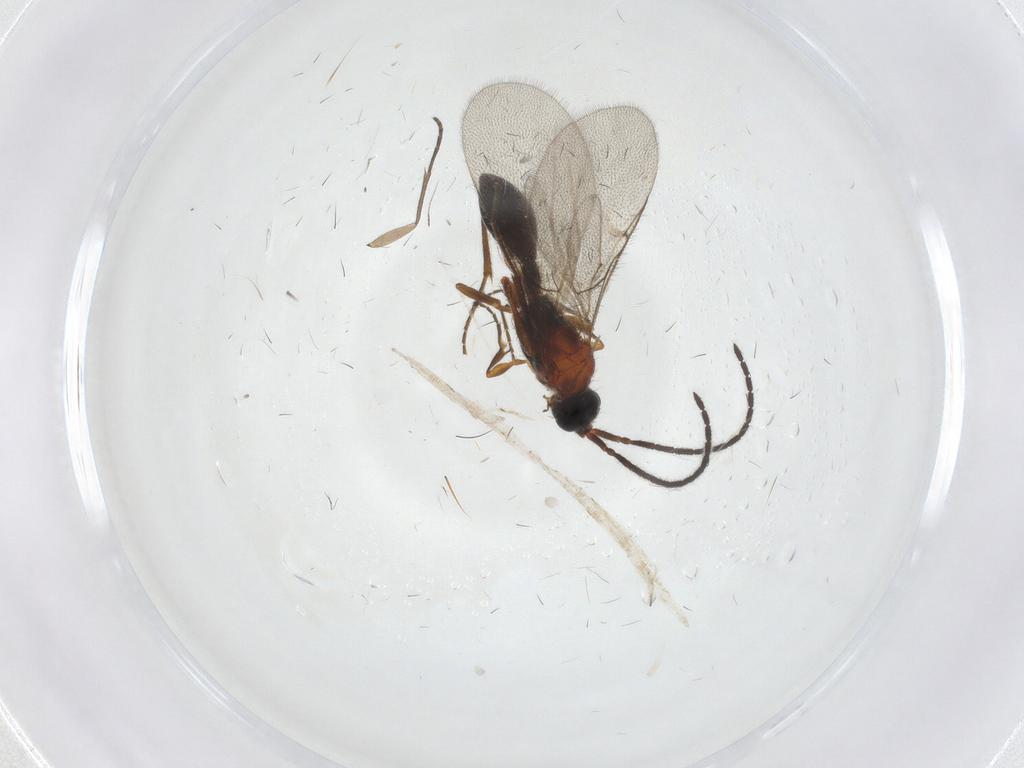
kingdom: Animalia
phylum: Arthropoda
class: Insecta
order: Hymenoptera
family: Diapriidae
